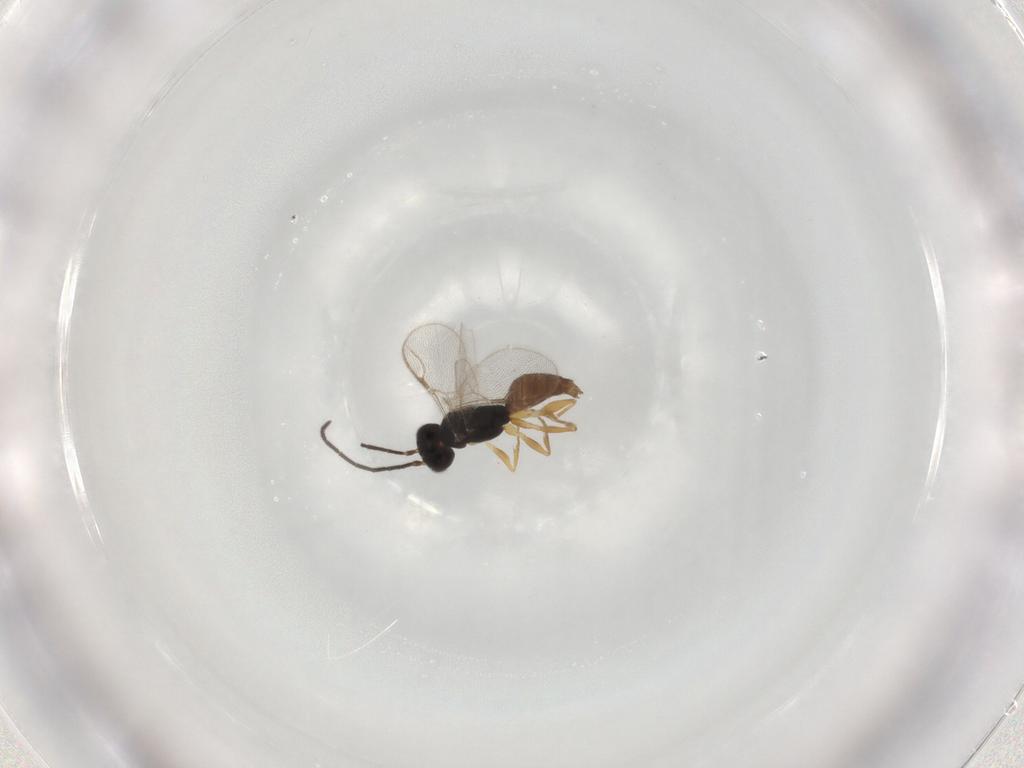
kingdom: Animalia
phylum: Arthropoda
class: Insecta
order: Hymenoptera
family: Dryinidae
